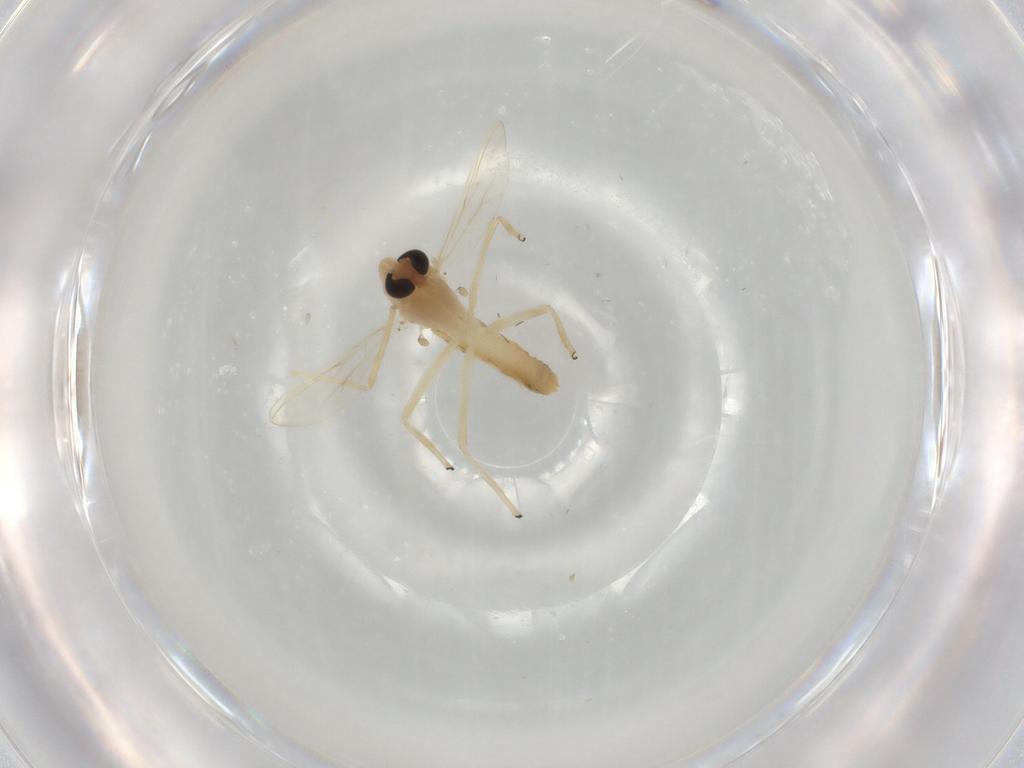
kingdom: Animalia
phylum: Arthropoda
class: Insecta
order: Diptera
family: Chironomidae
